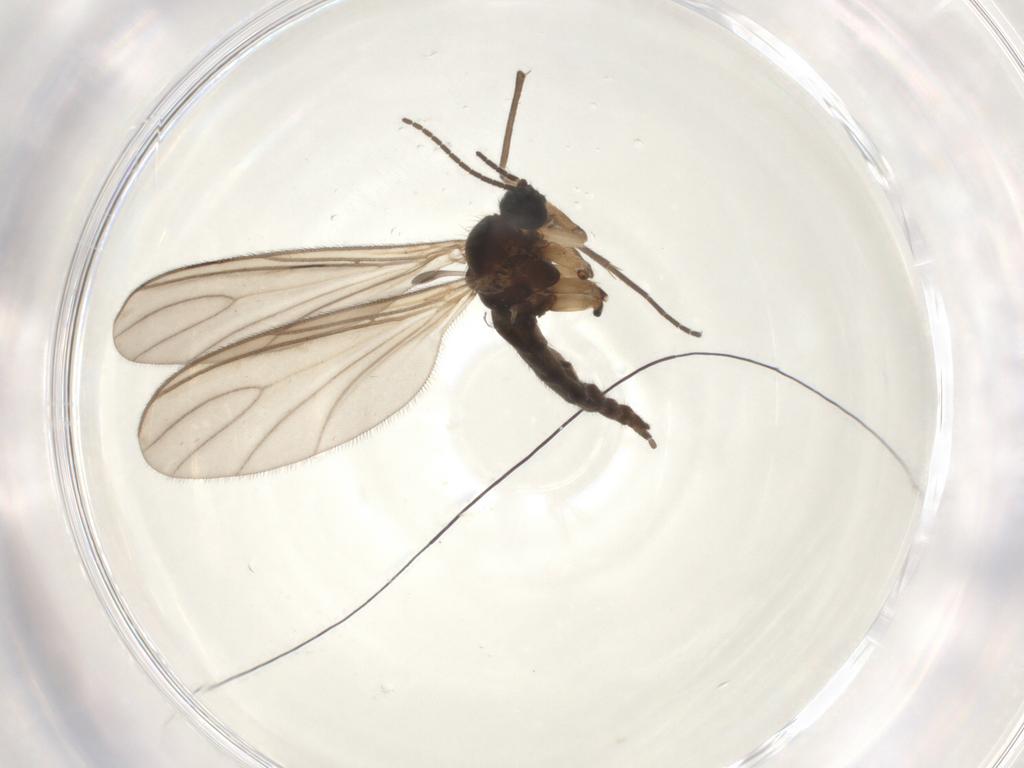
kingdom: Animalia
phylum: Arthropoda
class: Insecta
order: Diptera
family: Sciaridae
